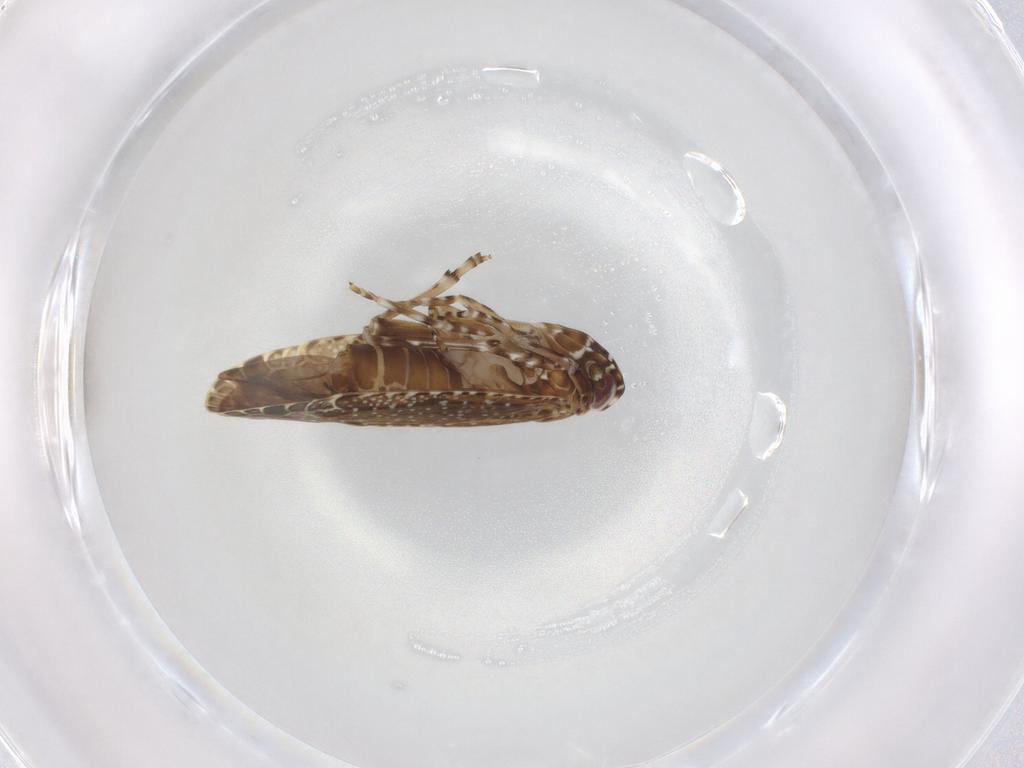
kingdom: Animalia
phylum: Arthropoda
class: Insecta
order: Hemiptera
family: Achilidae
